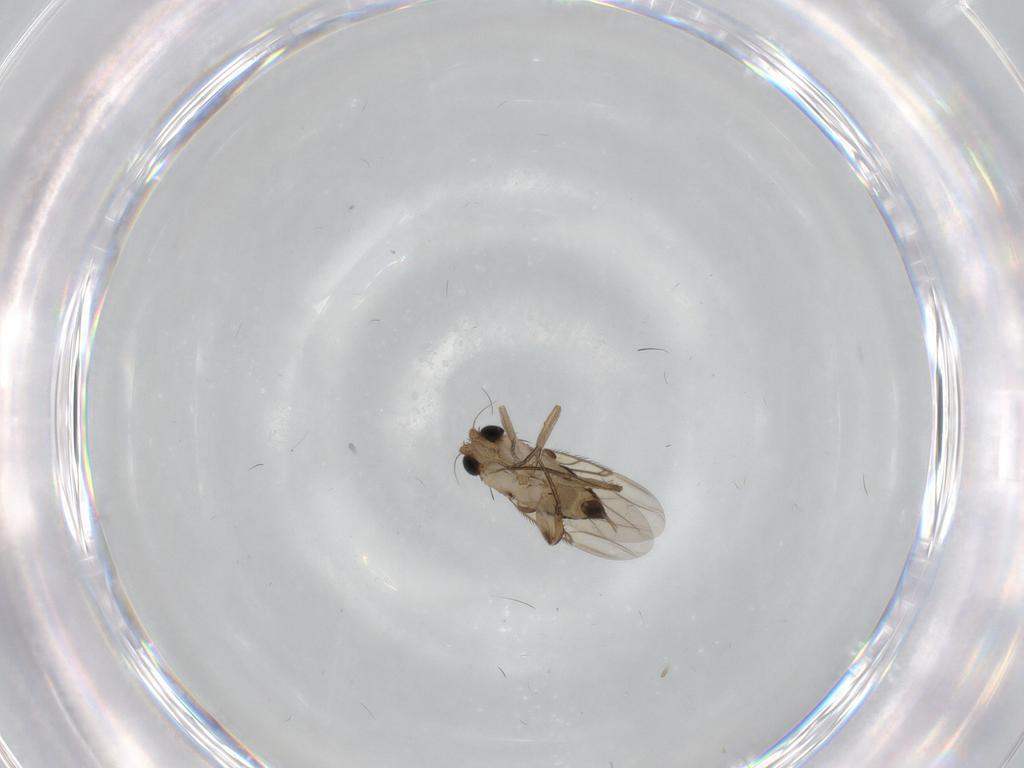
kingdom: Animalia
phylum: Arthropoda
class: Insecta
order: Diptera
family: Phoridae
